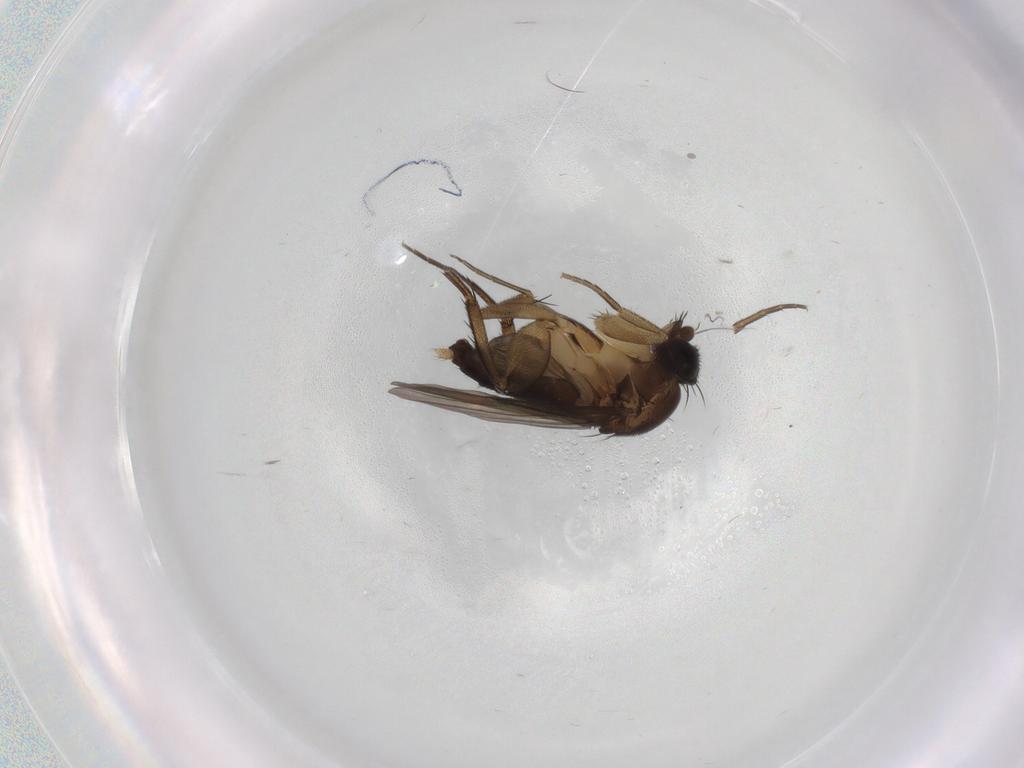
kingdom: Animalia
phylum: Arthropoda
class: Insecta
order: Diptera
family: Phoridae
